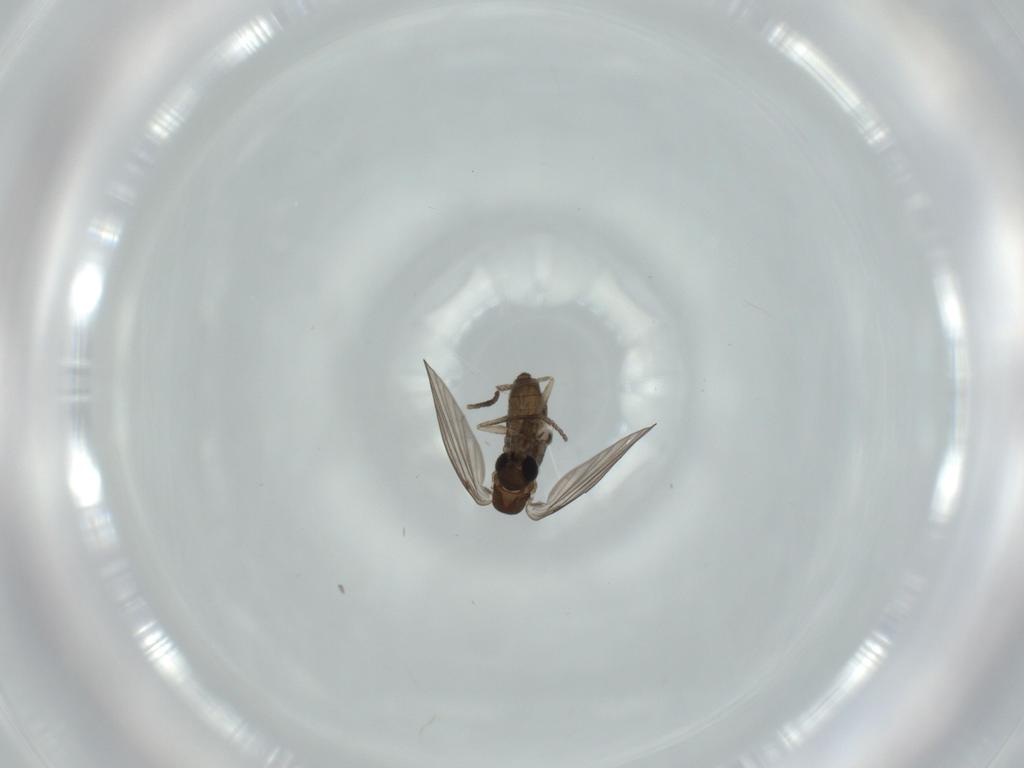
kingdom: Animalia
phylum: Arthropoda
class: Insecta
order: Diptera
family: Psychodidae
